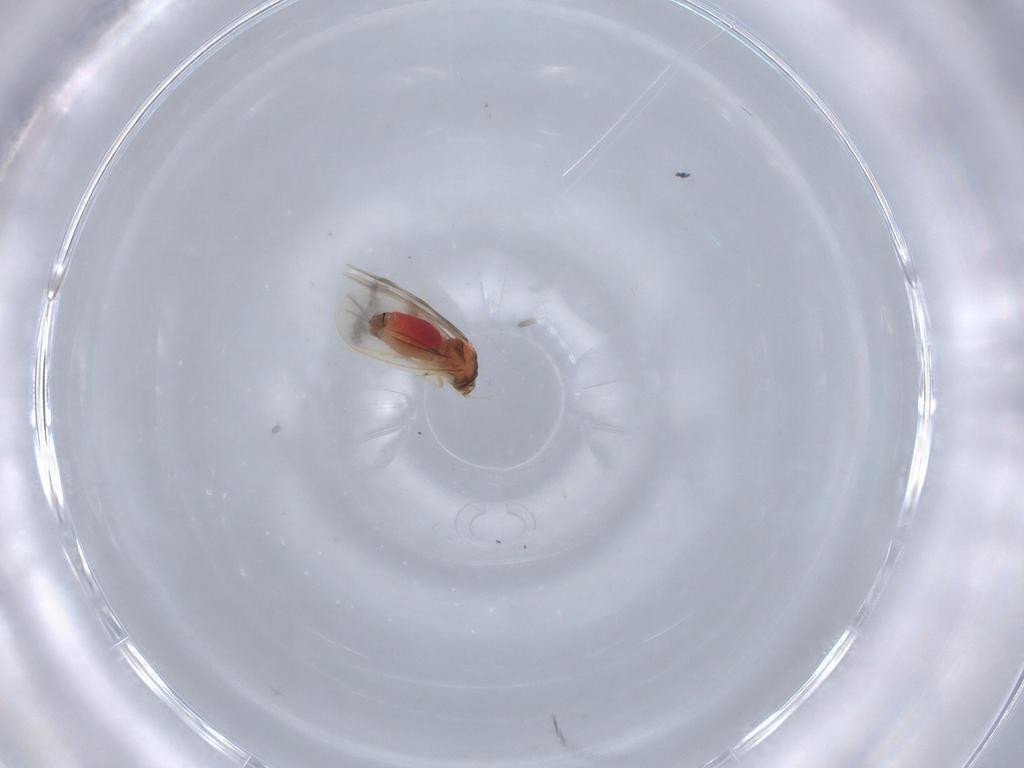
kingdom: Animalia
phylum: Arthropoda
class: Insecta
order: Hemiptera
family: Aleyrodidae
